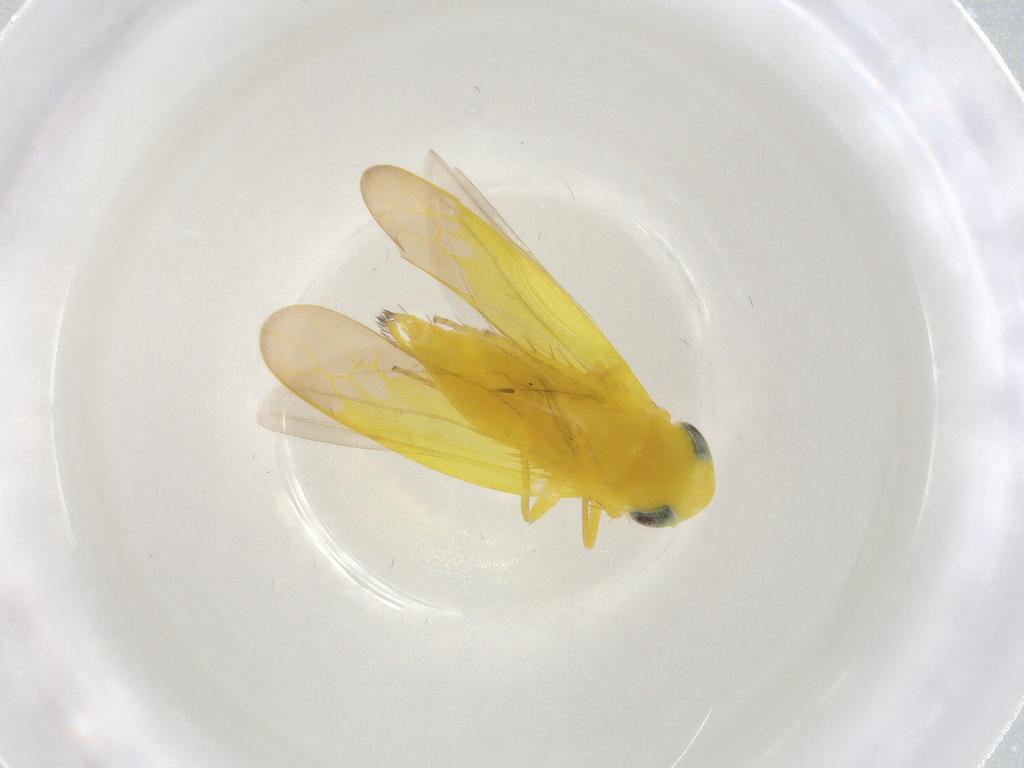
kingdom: Animalia
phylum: Arthropoda
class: Insecta
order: Hemiptera
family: Cicadellidae
